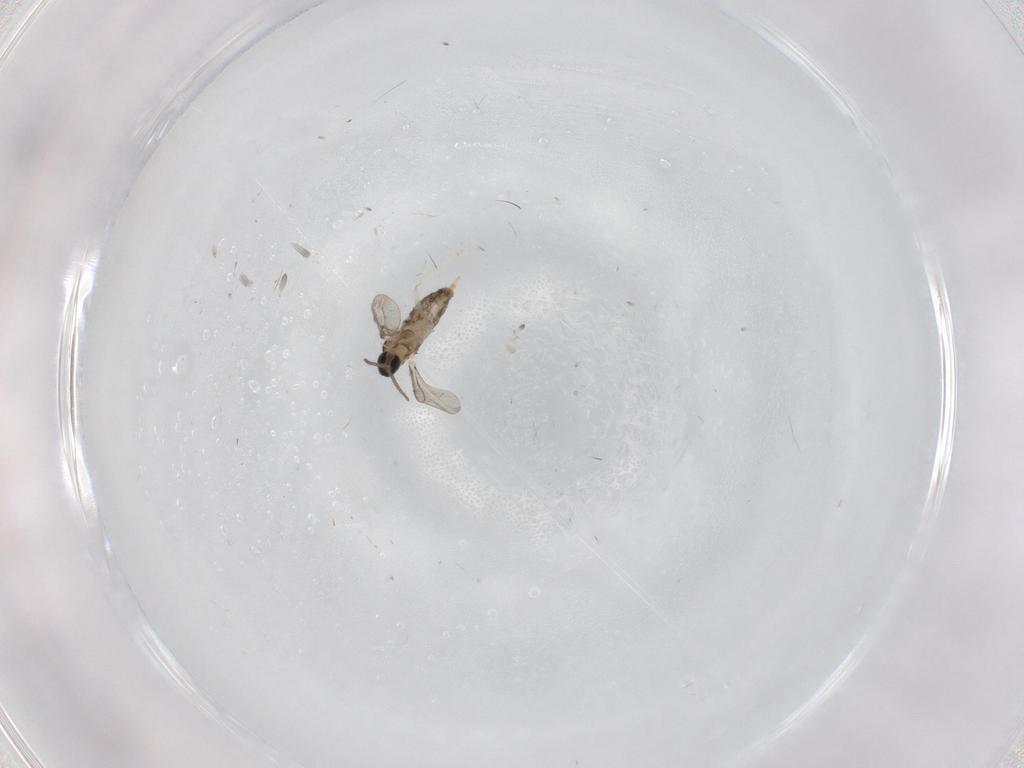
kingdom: Animalia
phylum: Arthropoda
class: Insecta
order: Diptera
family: Cecidomyiidae
